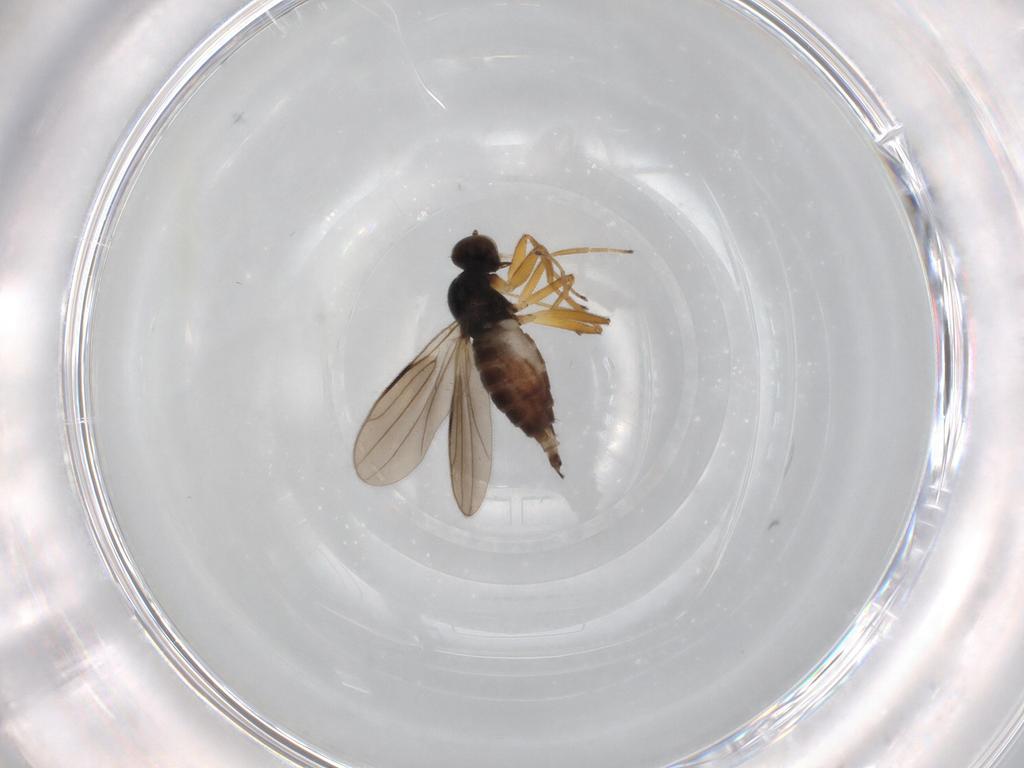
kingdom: Animalia
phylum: Arthropoda
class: Insecta
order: Diptera
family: Hybotidae
